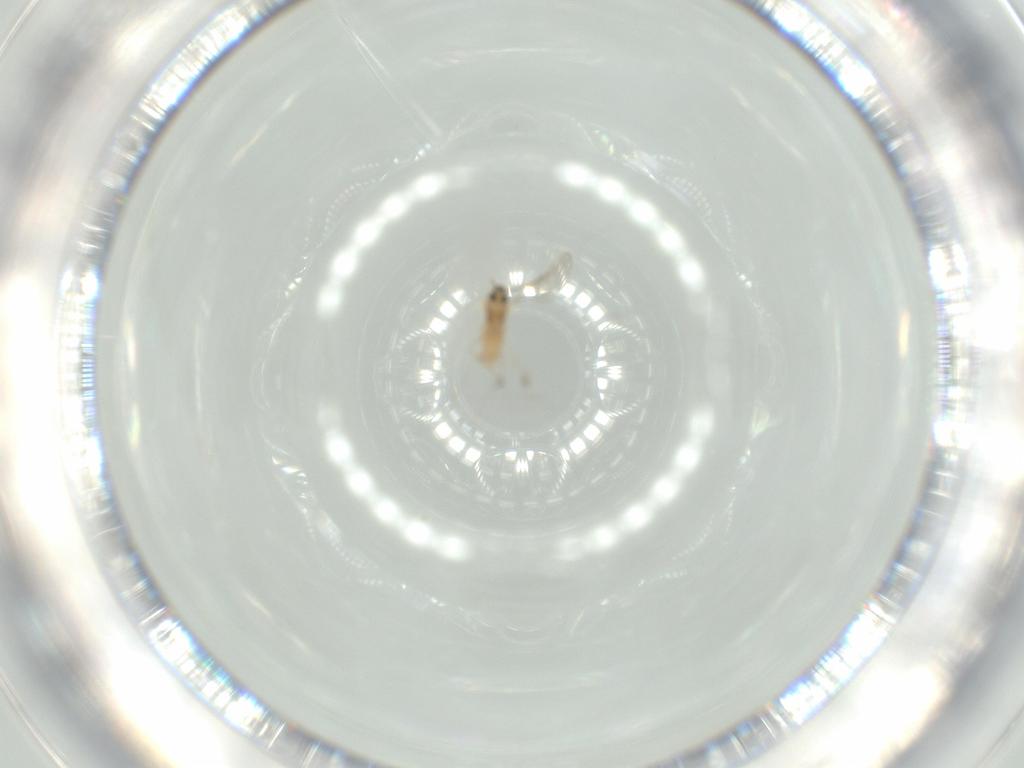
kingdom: Animalia
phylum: Arthropoda
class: Insecta
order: Diptera
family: Cecidomyiidae
